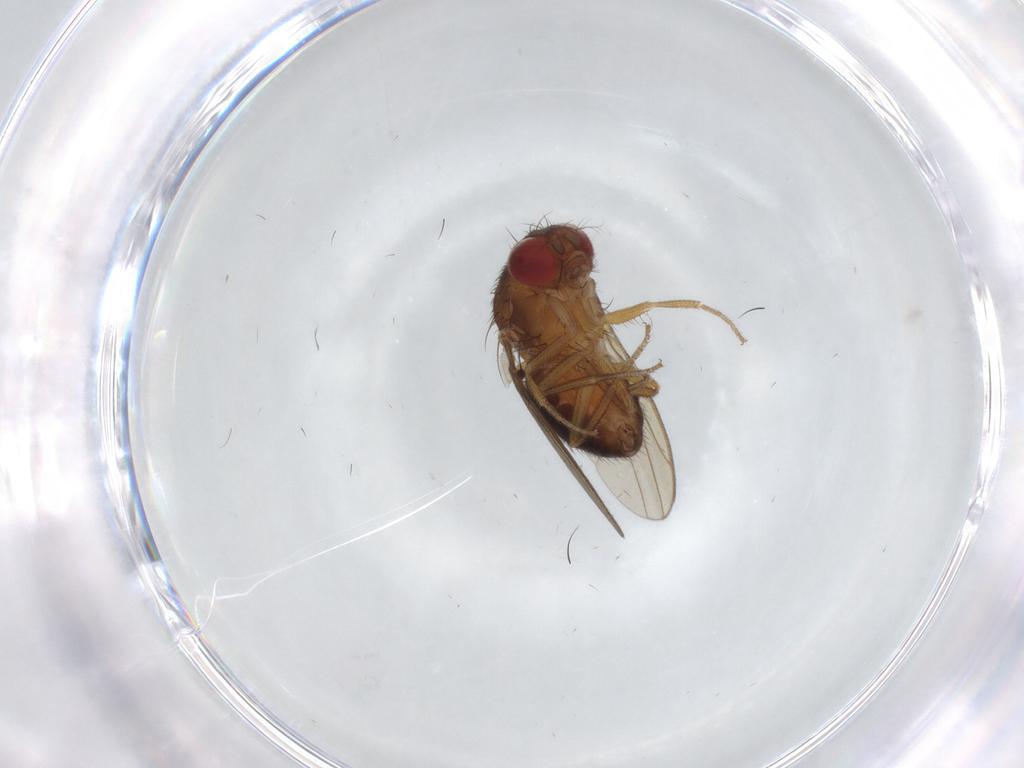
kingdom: Animalia
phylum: Arthropoda
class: Insecta
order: Diptera
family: Drosophilidae
